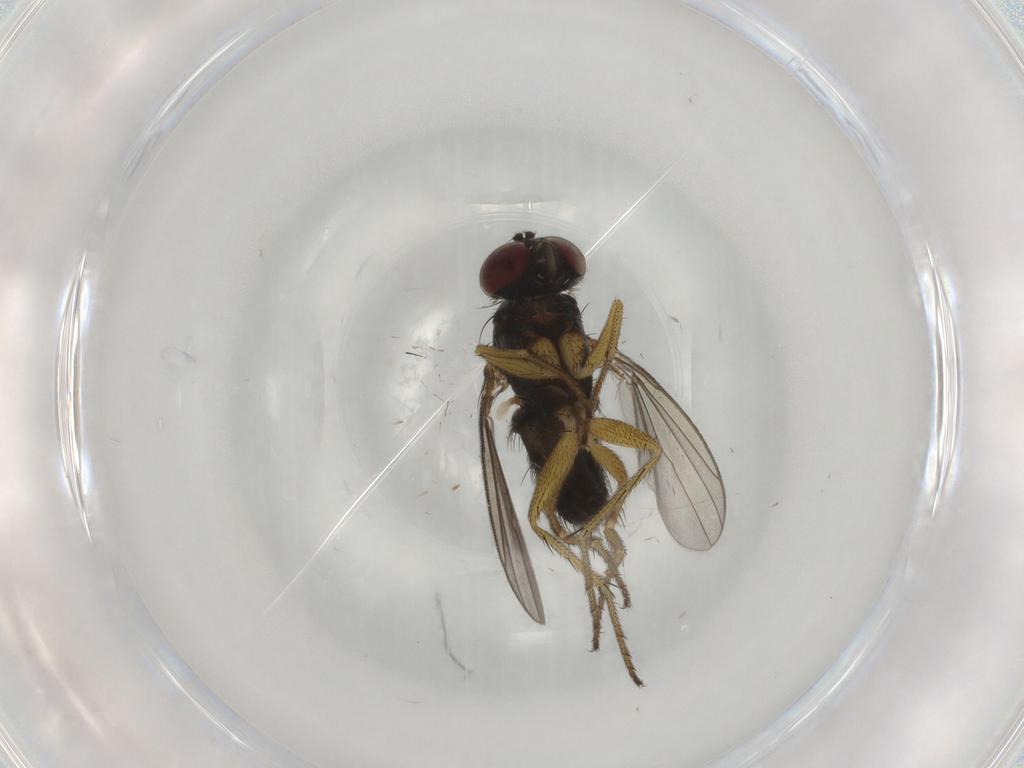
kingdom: Animalia
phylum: Arthropoda
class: Insecta
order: Diptera
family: Dolichopodidae
